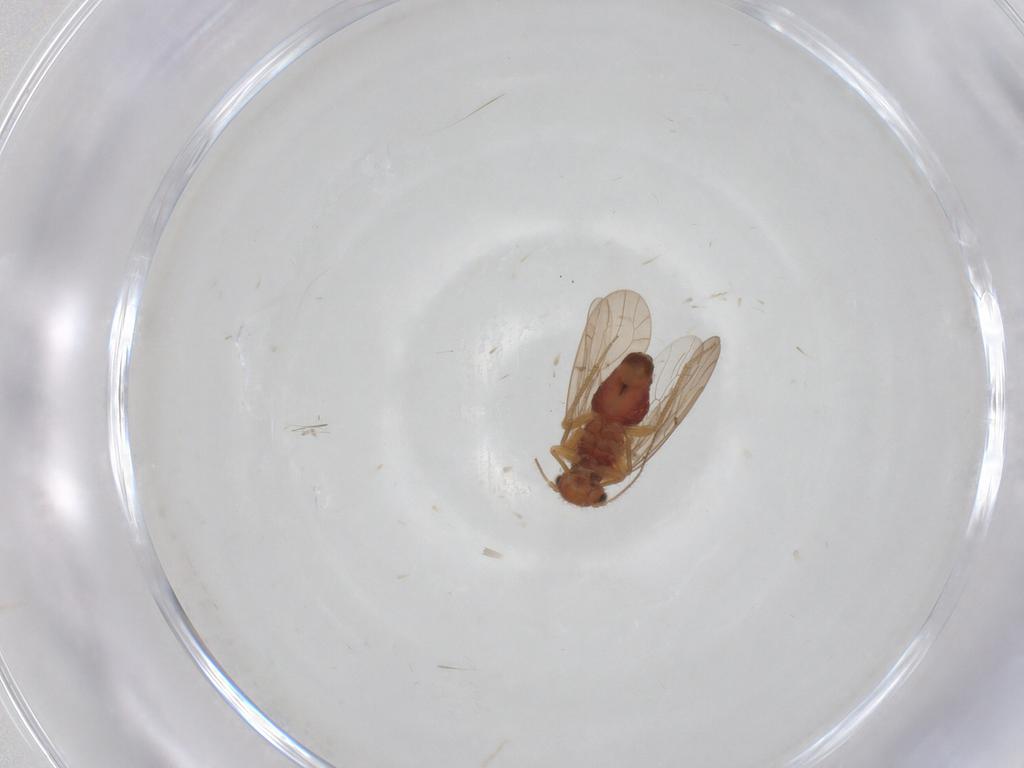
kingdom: Animalia
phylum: Arthropoda
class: Insecta
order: Psocodea
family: Ectopsocidae
